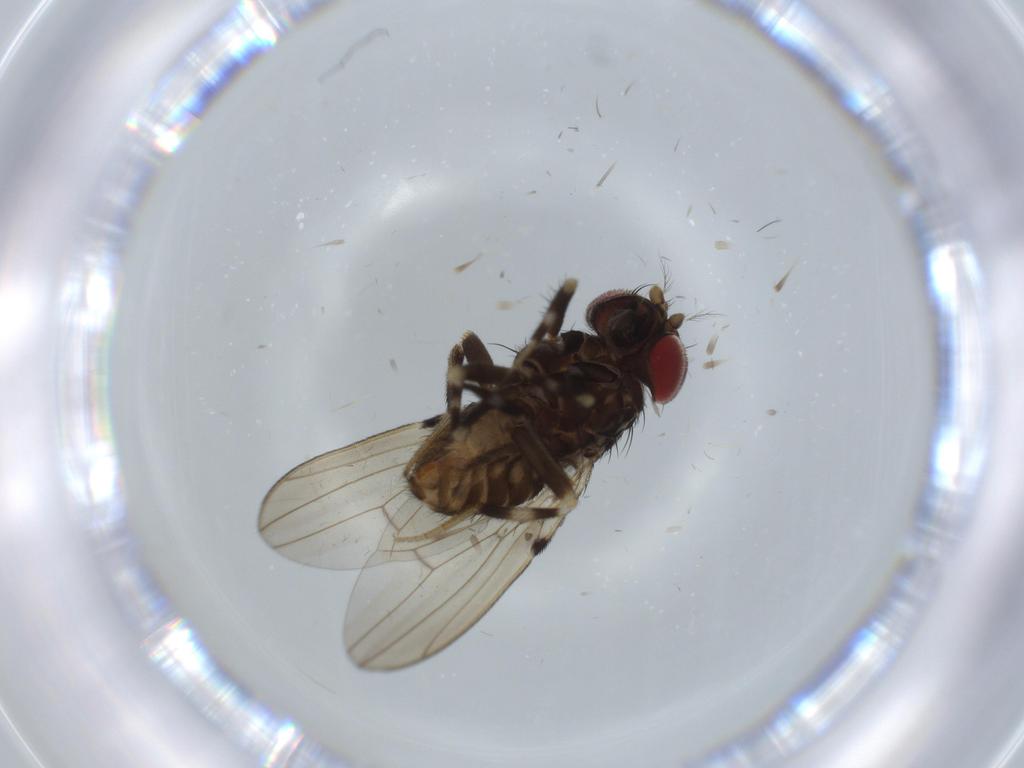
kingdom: Animalia
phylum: Arthropoda
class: Insecta
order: Diptera
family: Drosophilidae
